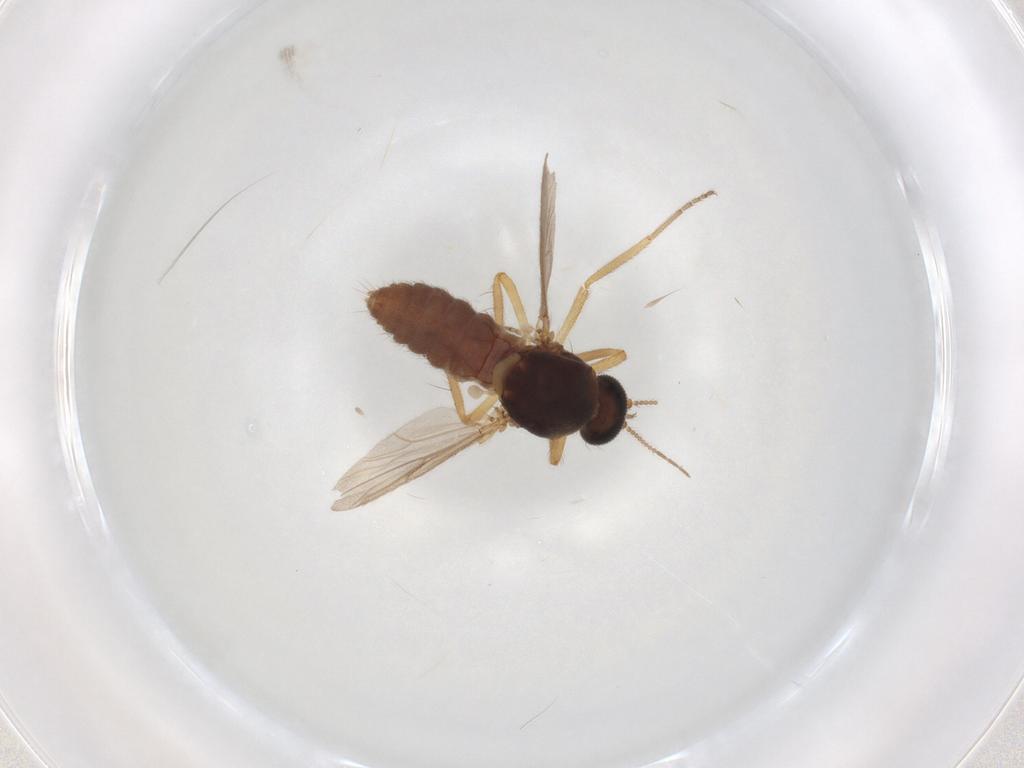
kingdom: Animalia
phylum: Arthropoda
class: Insecta
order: Diptera
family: Ceratopogonidae
